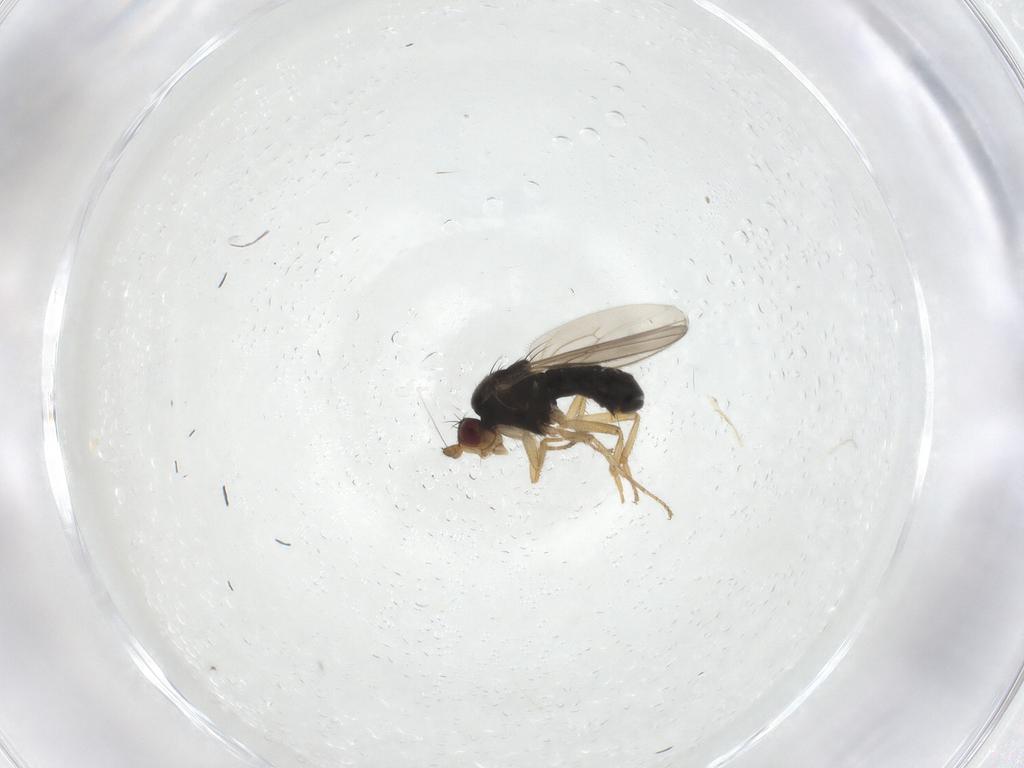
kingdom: Animalia
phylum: Arthropoda
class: Insecta
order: Diptera
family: Sphaeroceridae
